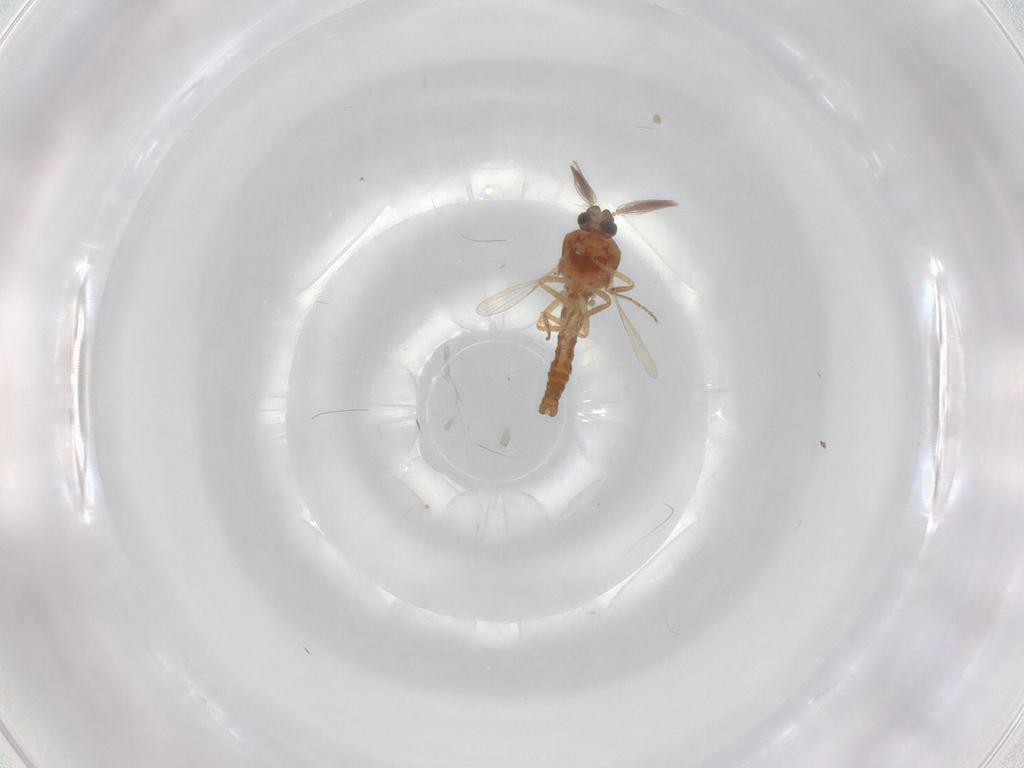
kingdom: Animalia
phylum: Arthropoda
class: Insecta
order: Diptera
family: Ceratopogonidae
